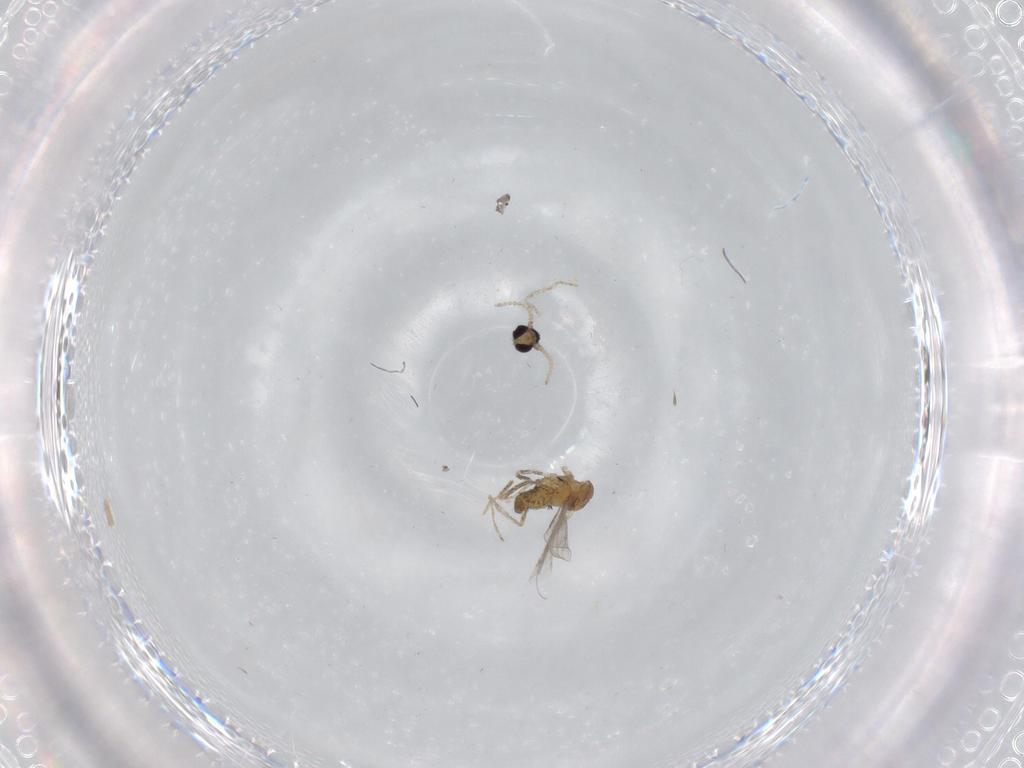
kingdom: Animalia
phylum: Arthropoda
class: Insecta
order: Diptera
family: Cecidomyiidae
